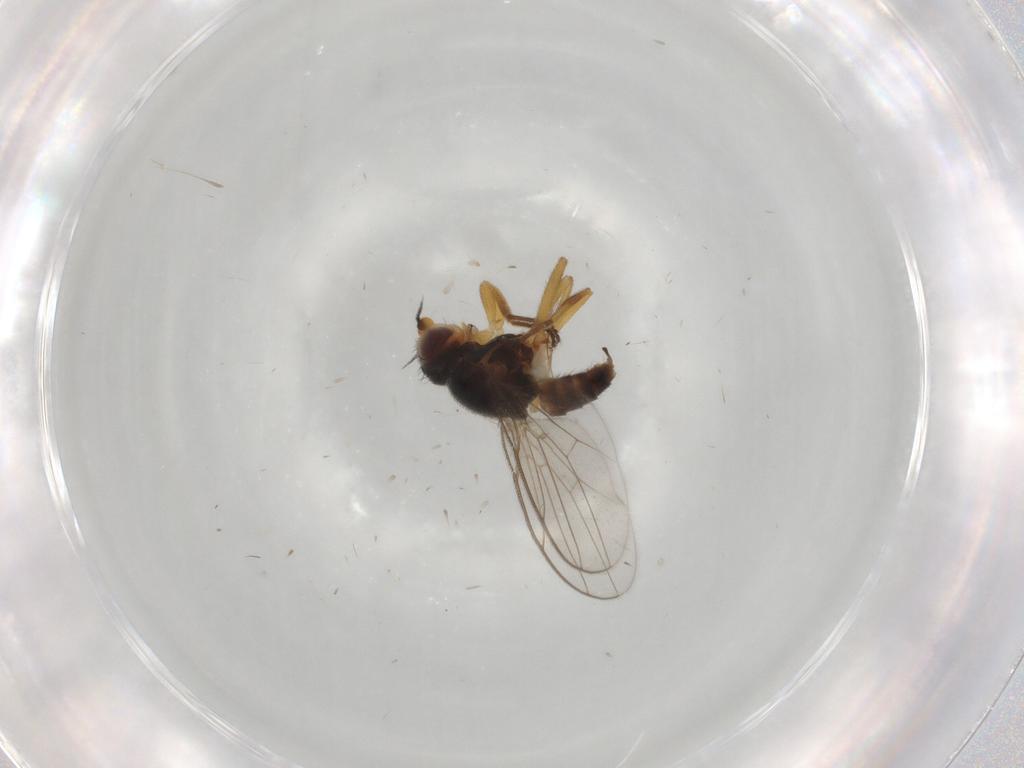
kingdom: Animalia
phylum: Arthropoda
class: Insecta
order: Diptera
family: Chloropidae
